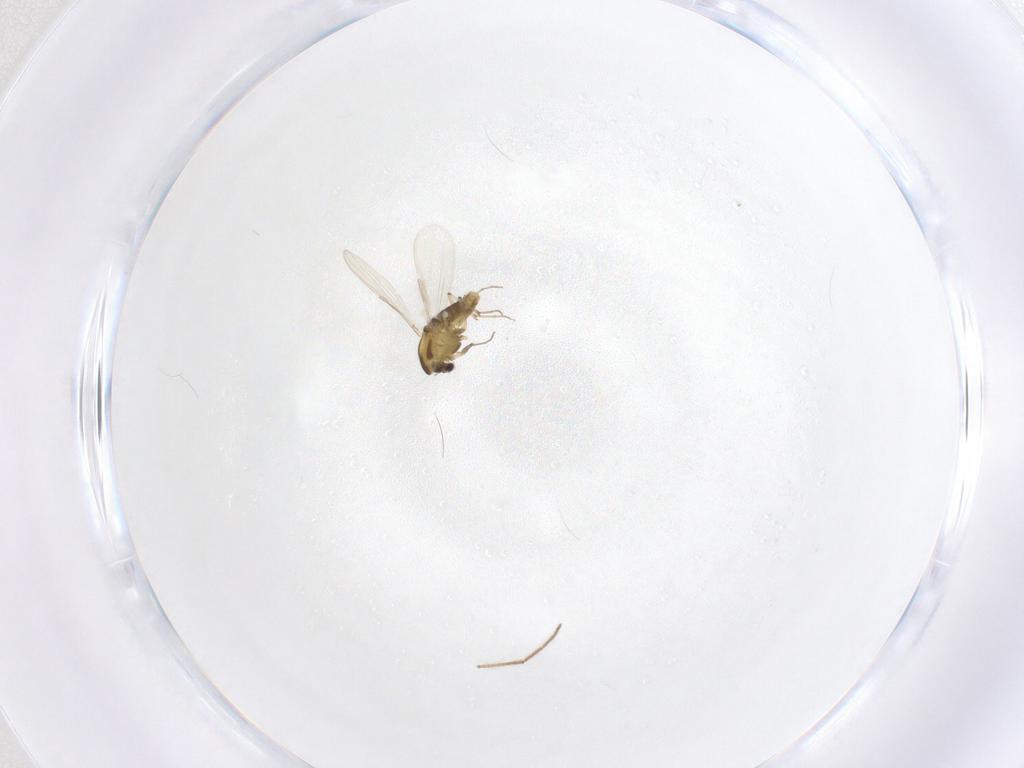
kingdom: Animalia
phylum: Arthropoda
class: Insecta
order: Diptera
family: Chironomidae
